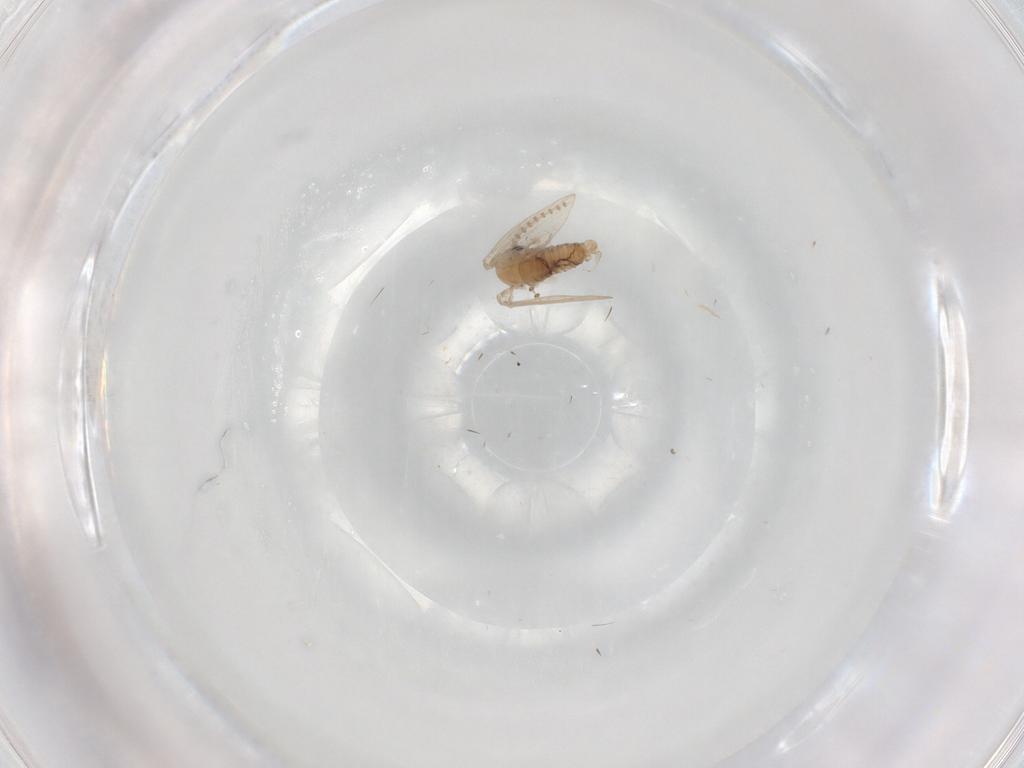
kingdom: Animalia
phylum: Arthropoda
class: Insecta
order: Diptera
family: Psychodidae
